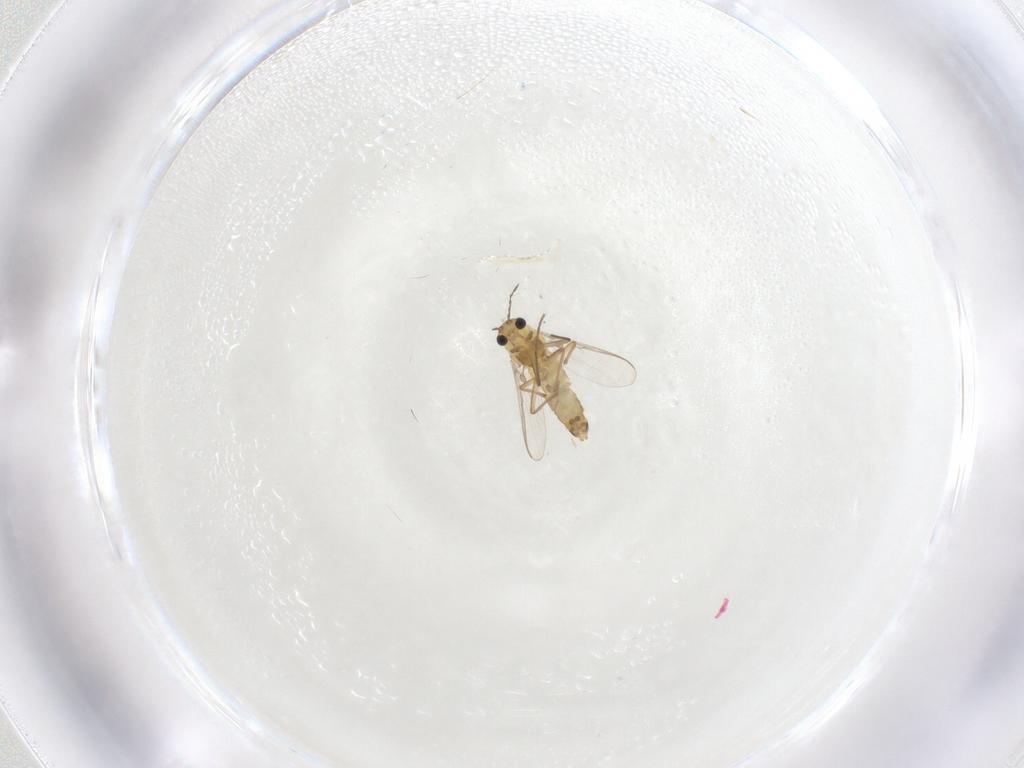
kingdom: Animalia
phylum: Arthropoda
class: Insecta
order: Diptera
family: Chironomidae
